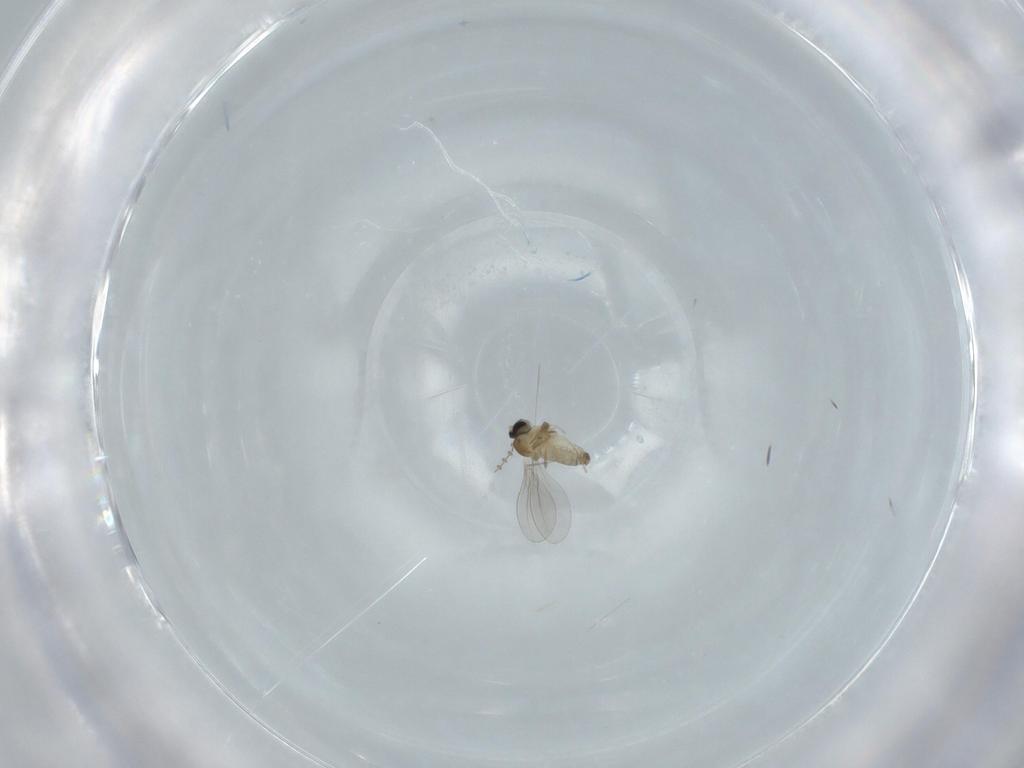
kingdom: Animalia
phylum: Arthropoda
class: Insecta
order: Diptera
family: Cecidomyiidae
